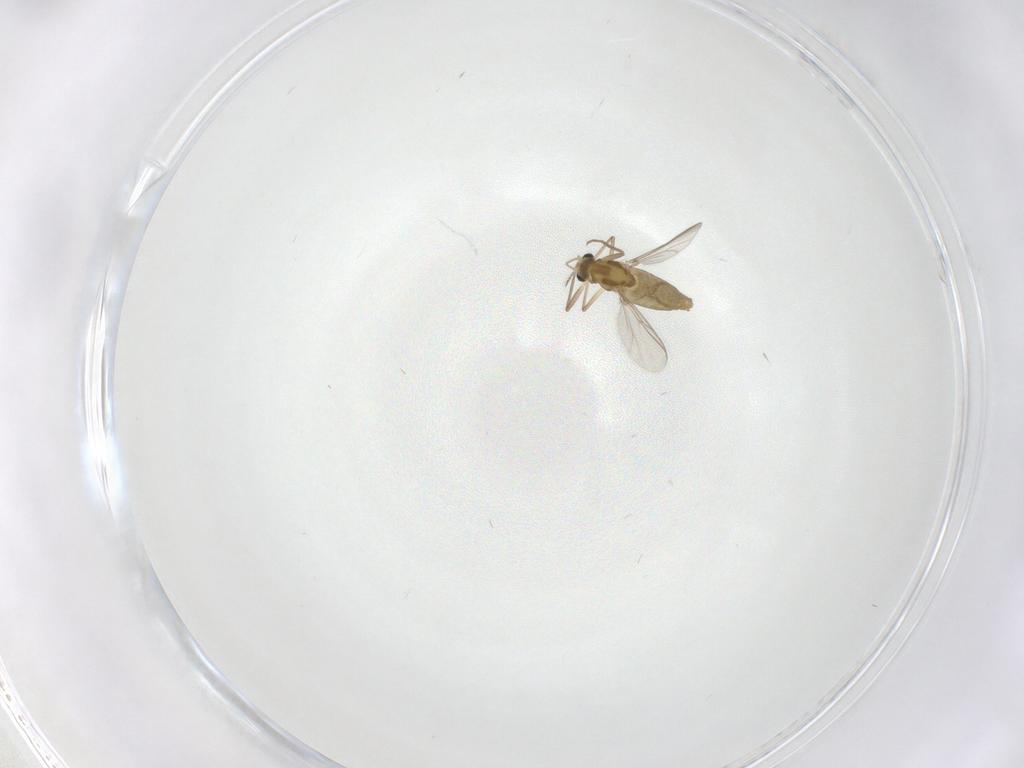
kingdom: Animalia
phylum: Arthropoda
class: Insecta
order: Diptera
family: Chironomidae
